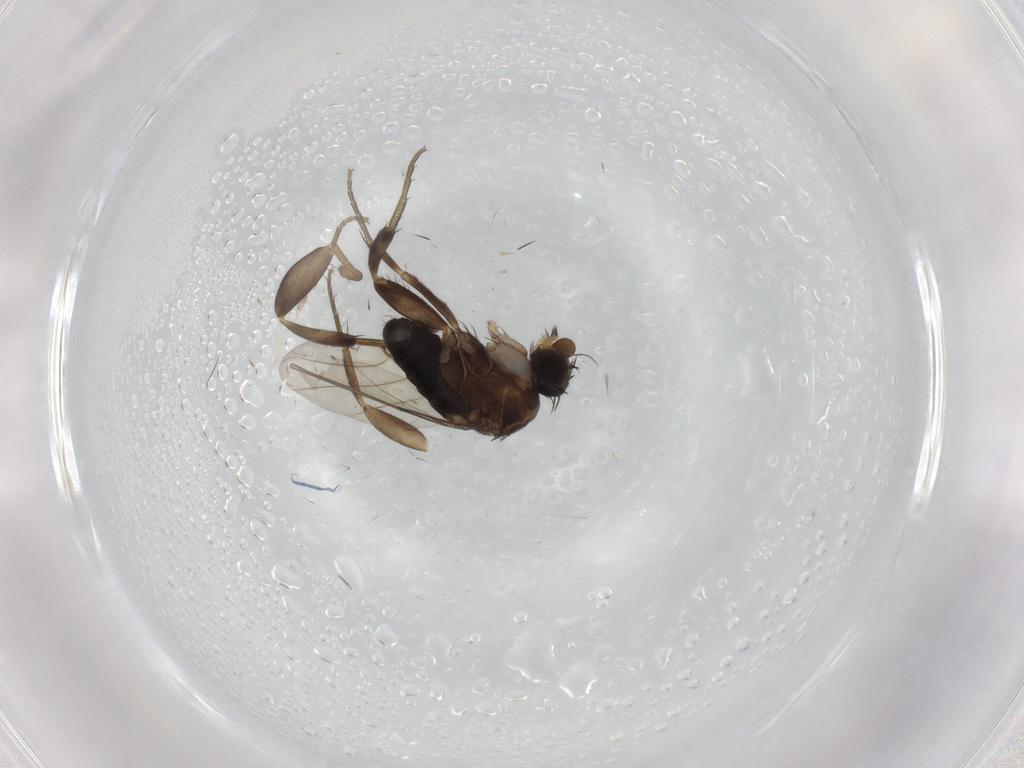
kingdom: Animalia
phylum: Arthropoda
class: Insecta
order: Diptera
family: Phoridae
